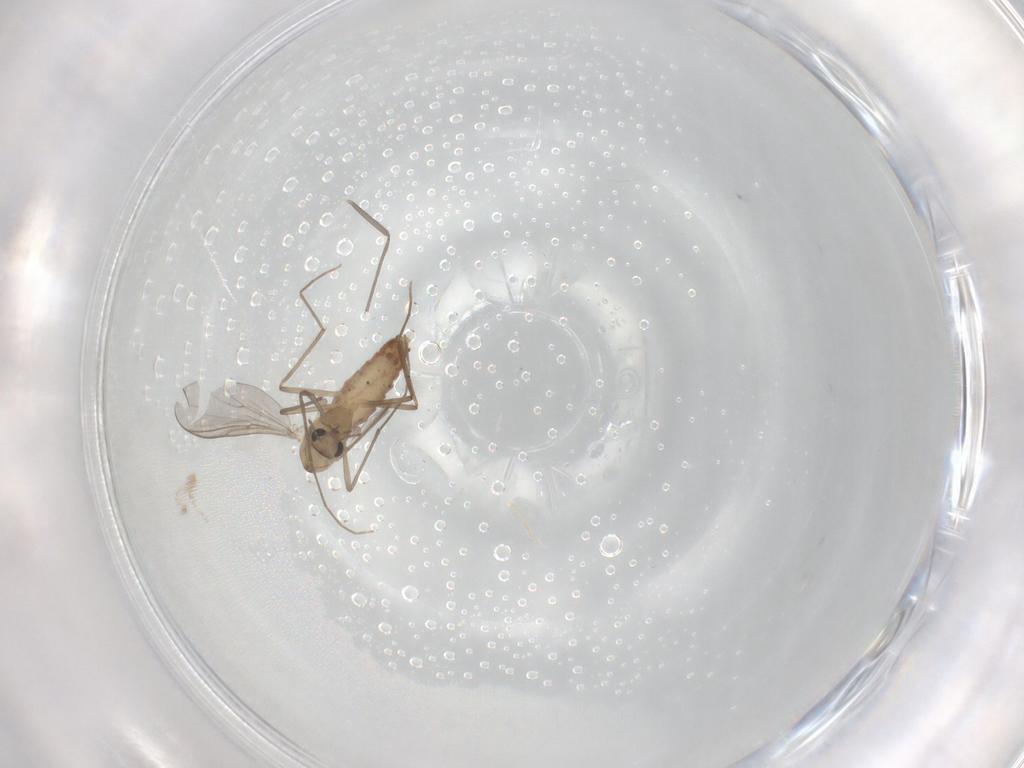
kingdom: Animalia
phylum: Arthropoda
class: Insecta
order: Diptera
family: Chironomidae
